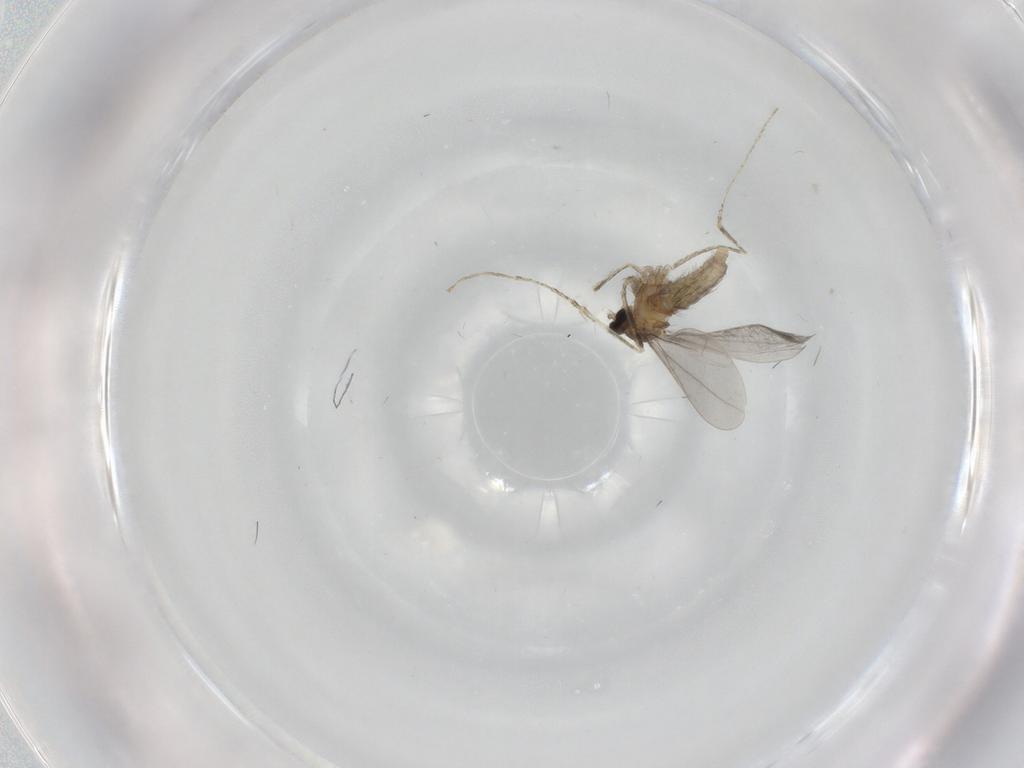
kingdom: Animalia
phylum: Arthropoda
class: Insecta
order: Diptera
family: Cecidomyiidae
